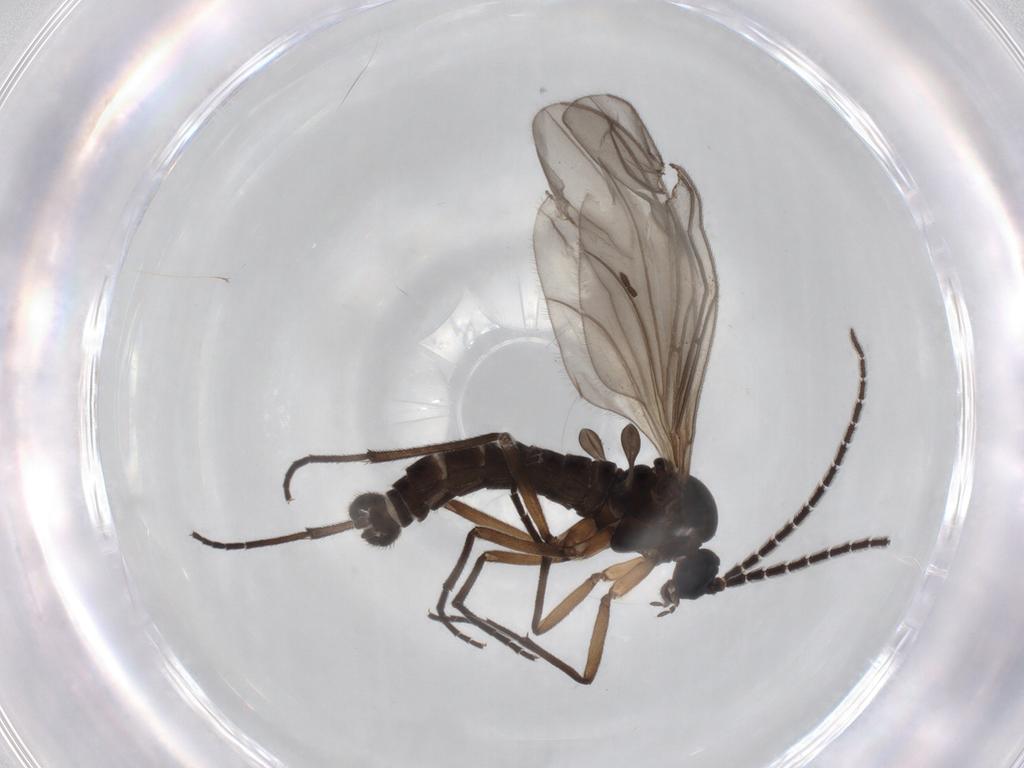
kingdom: Animalia
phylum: Arthropoda
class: Insecta
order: Diptera
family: Sciaridae
